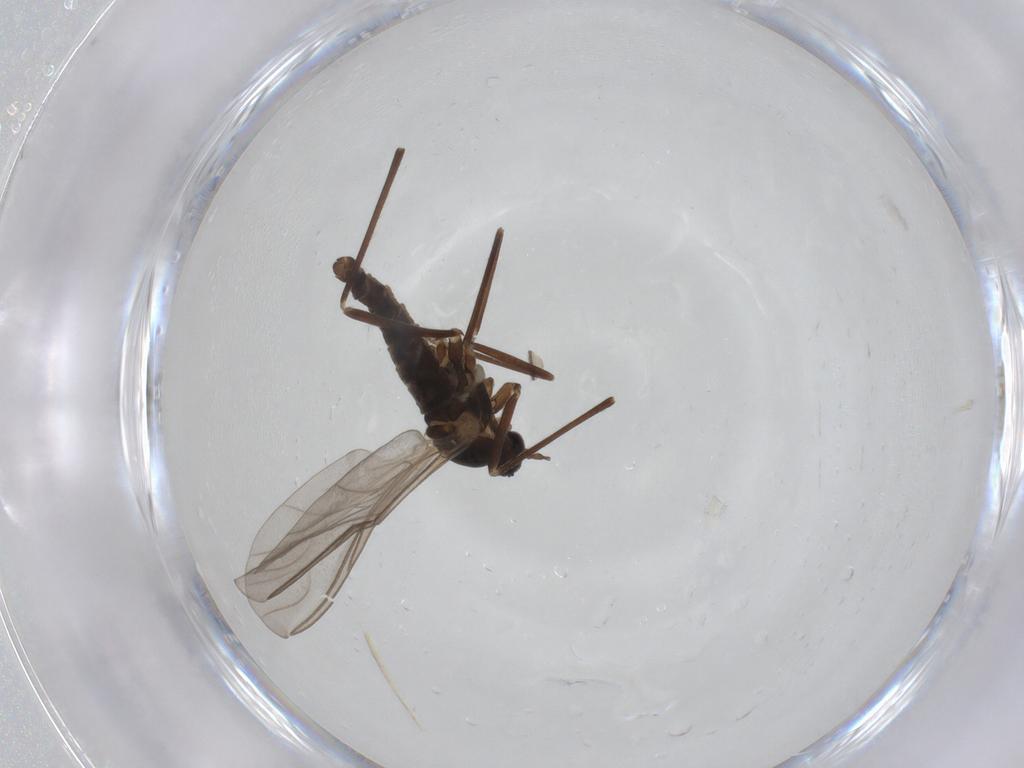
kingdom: Animalia
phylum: Arthropoda
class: Insecta
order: Diptera
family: Cecidomyiidae
